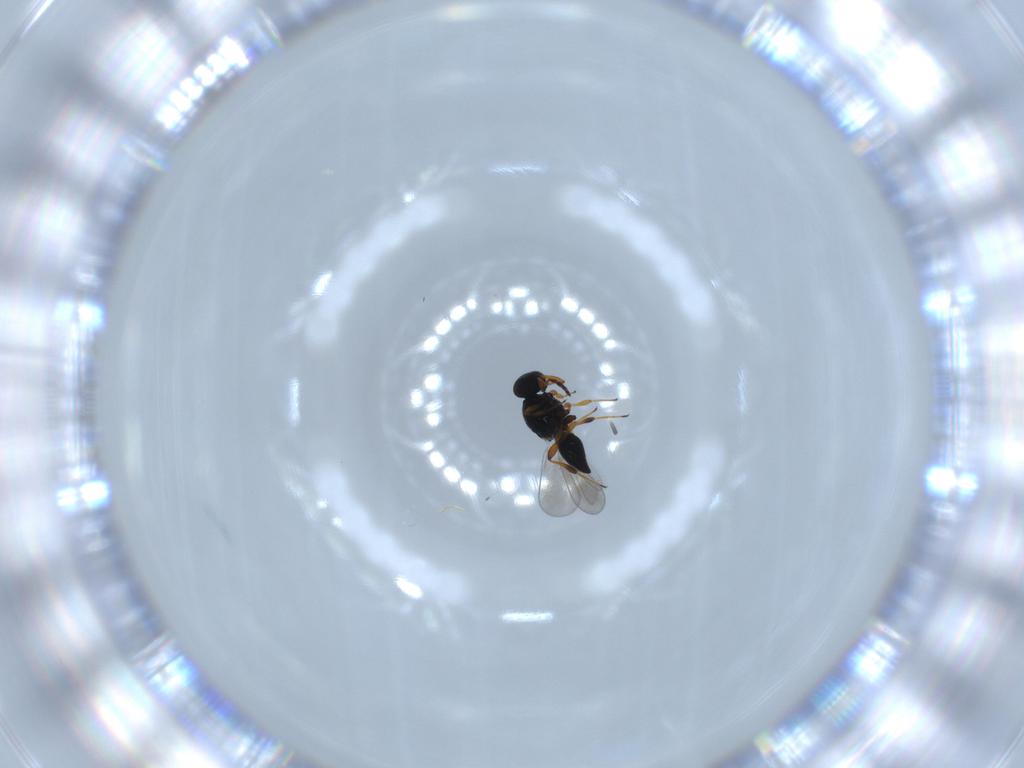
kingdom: Animalia
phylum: Arthropoda
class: Insecta
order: Hymenoptera
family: Platygastridae
